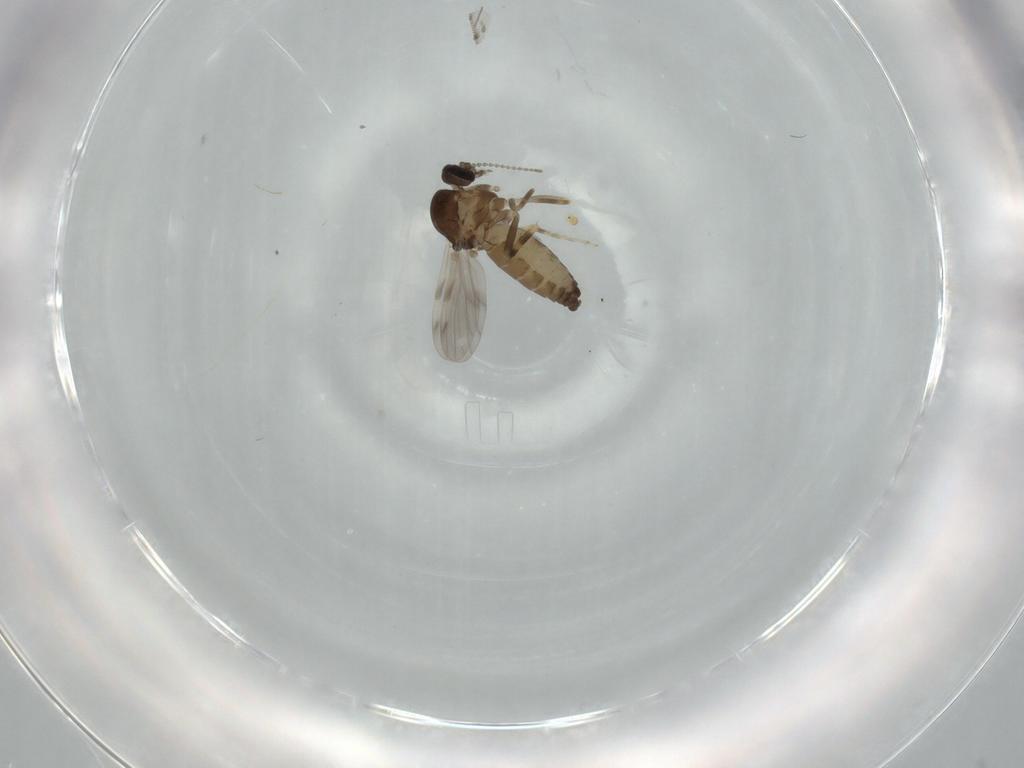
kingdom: Animalia
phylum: Arthropoda
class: Insecta
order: Diptera
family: Ceratopogonidae
